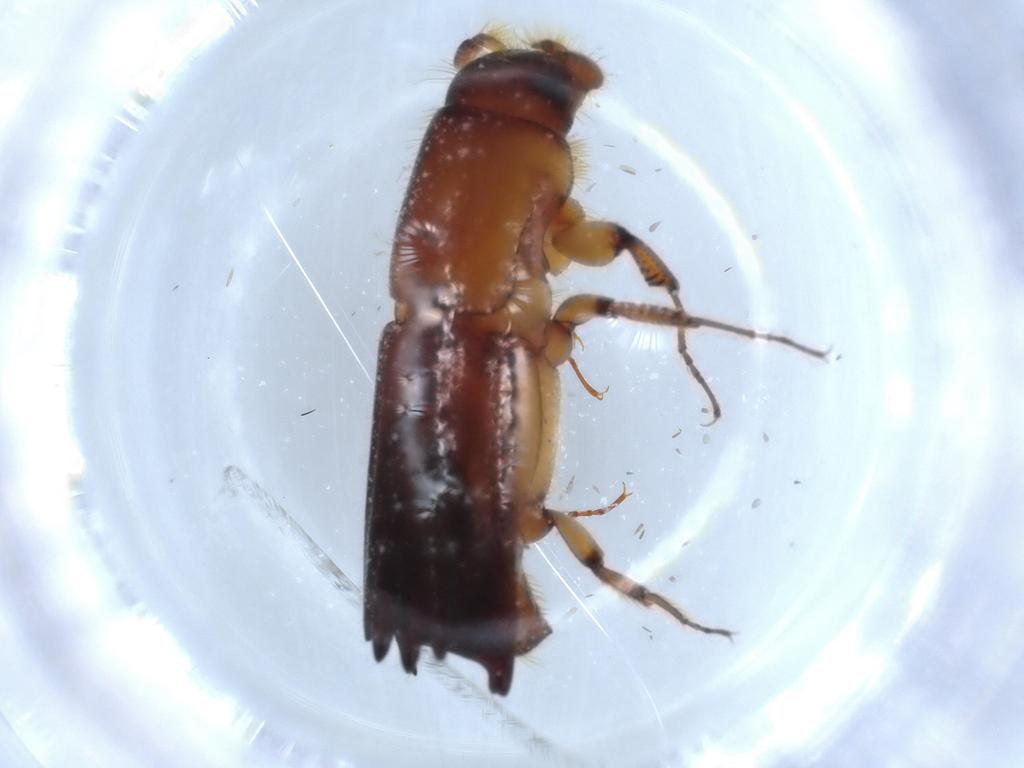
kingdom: Animalia
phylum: Arthropoda
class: Insecta
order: Coleoptera
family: Curculionidae
